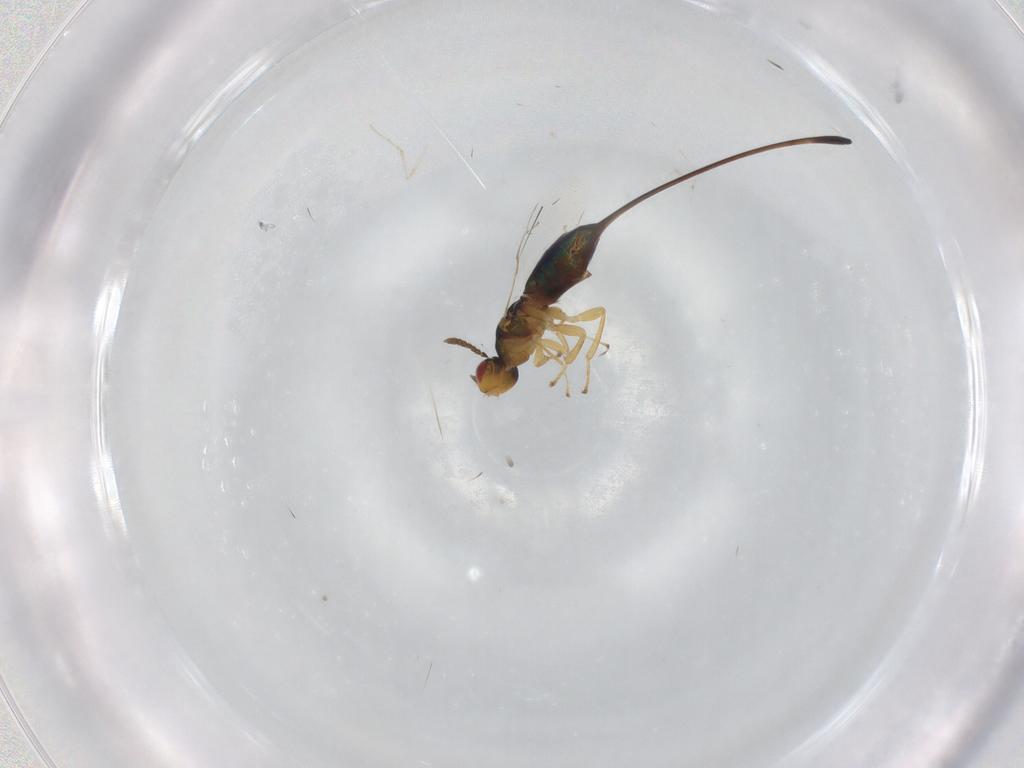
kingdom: Animalia
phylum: Arthropoda
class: Insecta
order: Hymenoptera
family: Pteromalidae
